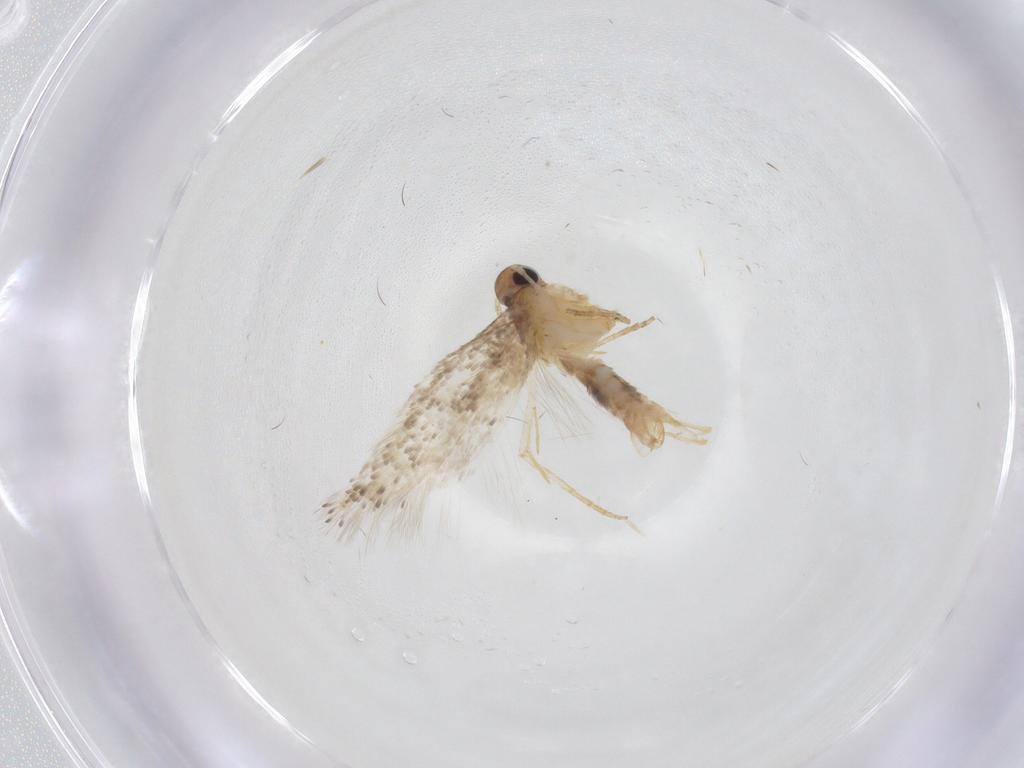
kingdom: Animalia
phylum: Arthropoda
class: Insecta
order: Lepidoptera
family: Gelechiidae
